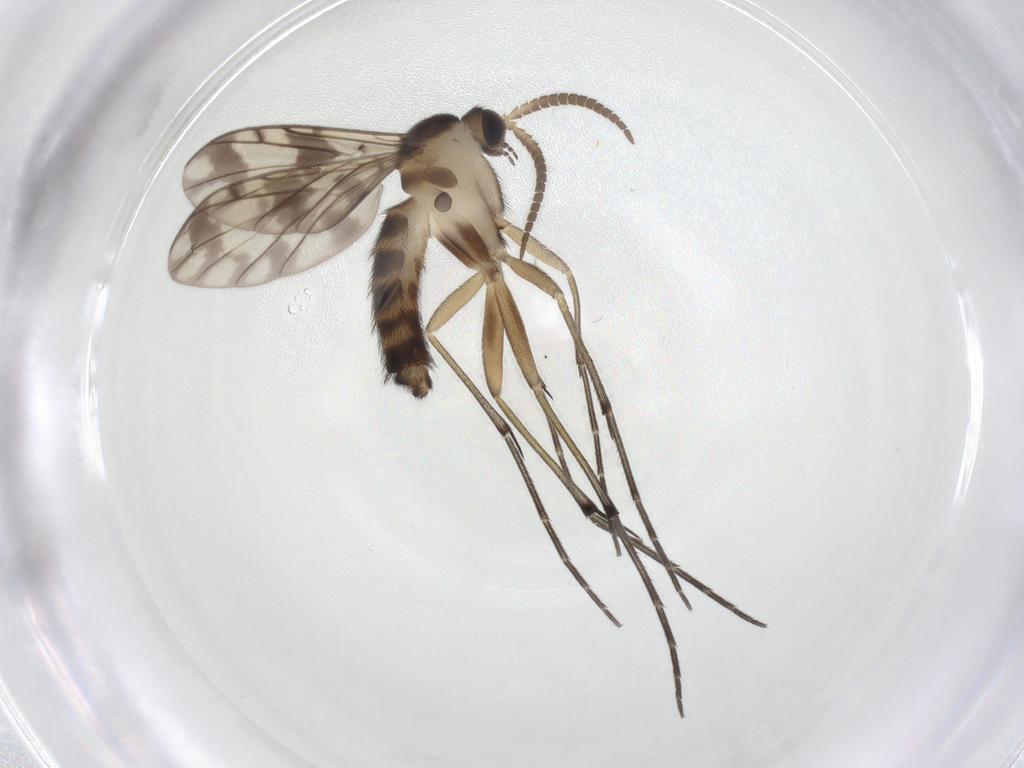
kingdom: Animalia
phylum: Arthropoda
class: Insecta
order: Diptera
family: Keroplatidae
